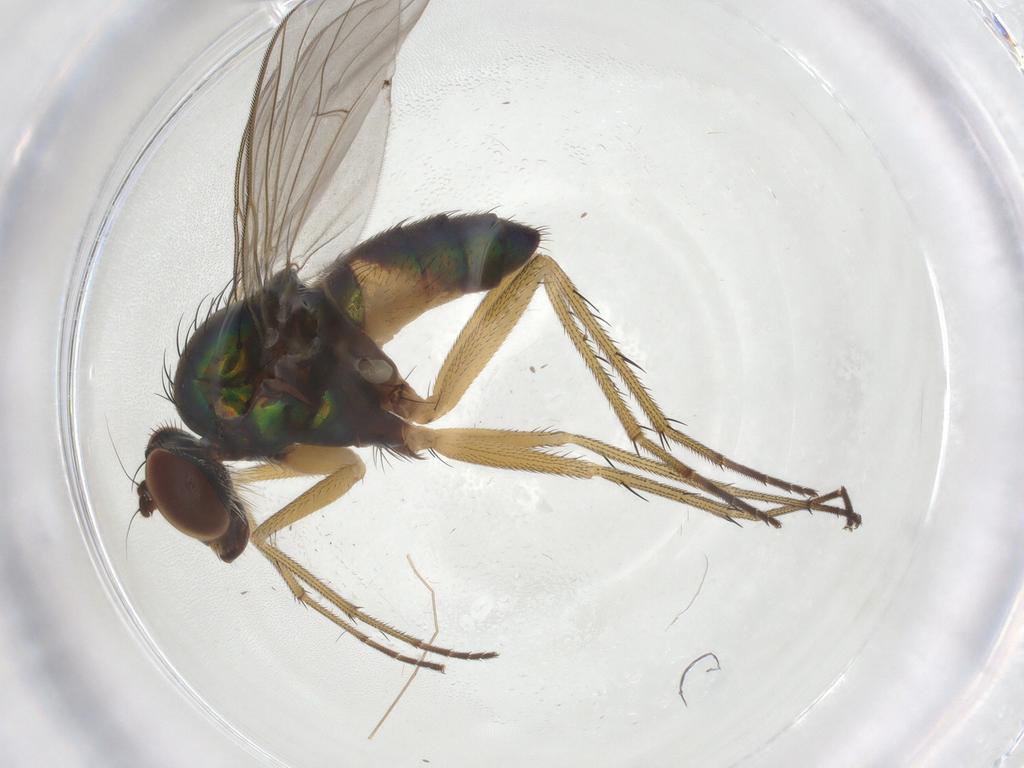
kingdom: Animalia
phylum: Arthropoda
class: Insecta
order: Diptera
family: Chironomidae
